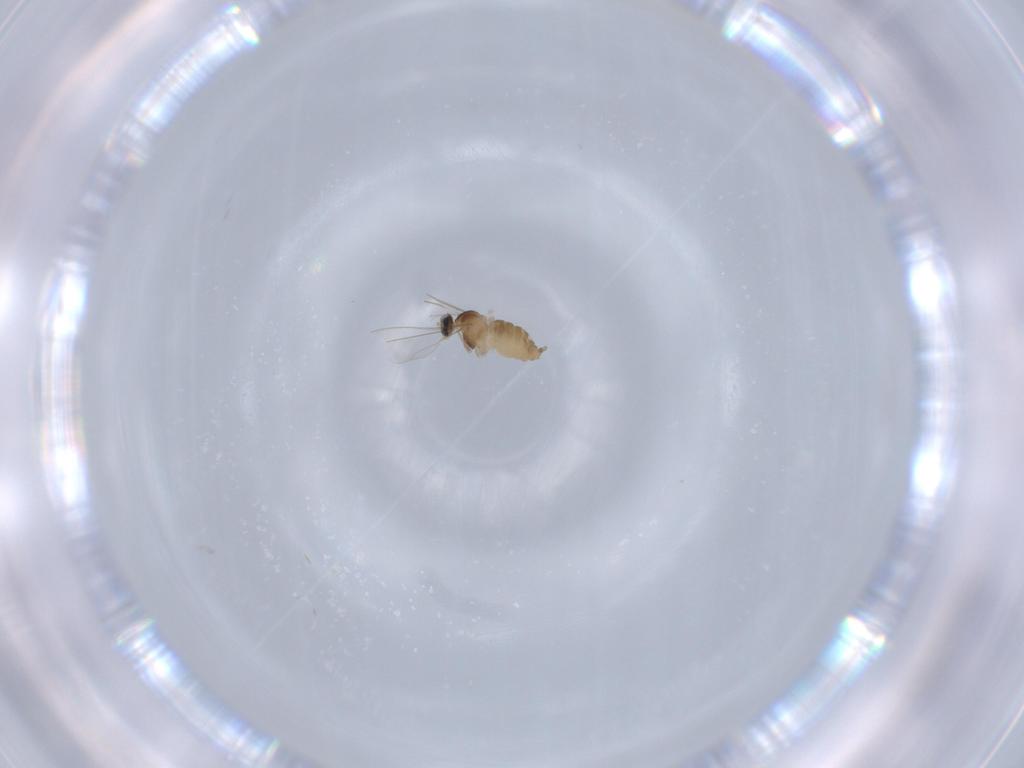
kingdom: Animalia
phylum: Arthropoda
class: Insecta
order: Diptera
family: Cecidomyiidae
